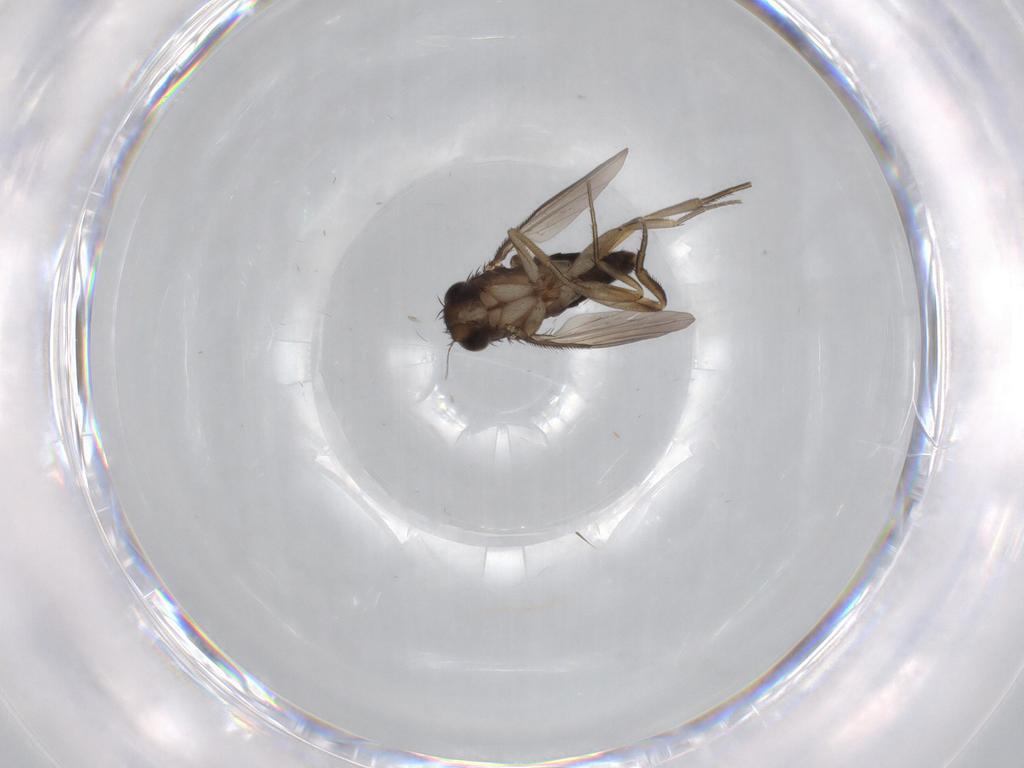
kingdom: Animalia
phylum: Arthropoda
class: Insecta
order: Diptera
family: Phoridae
